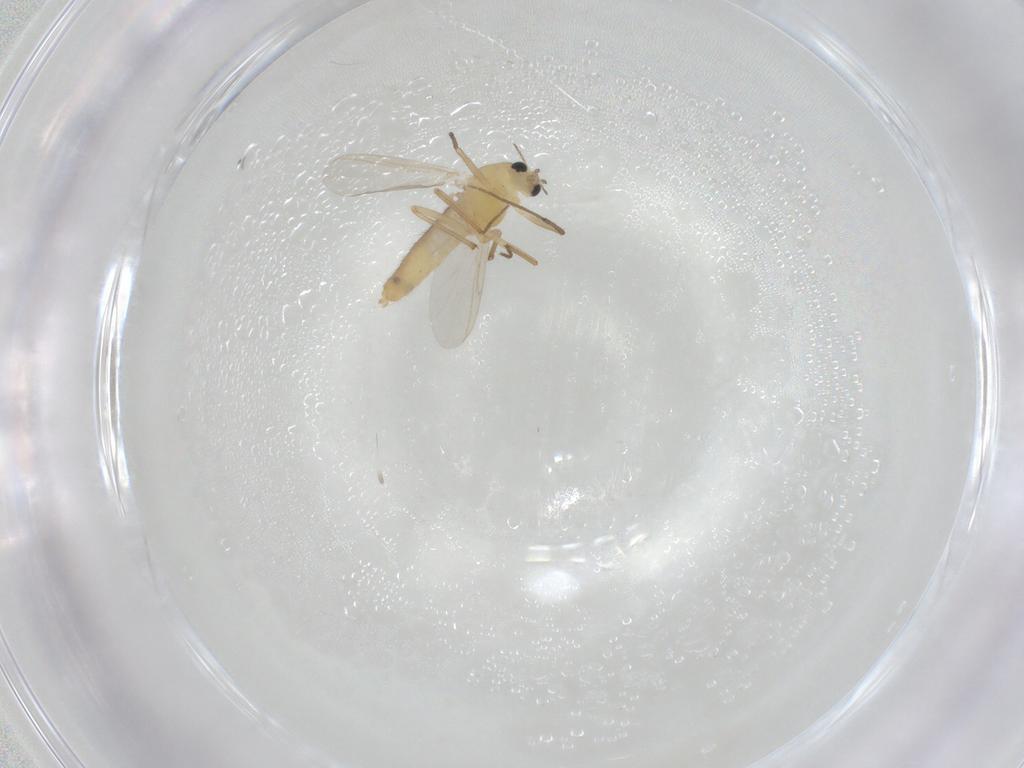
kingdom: Animalia
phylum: Arthropoda
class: Insecta
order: Diptera
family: Chironomidae
